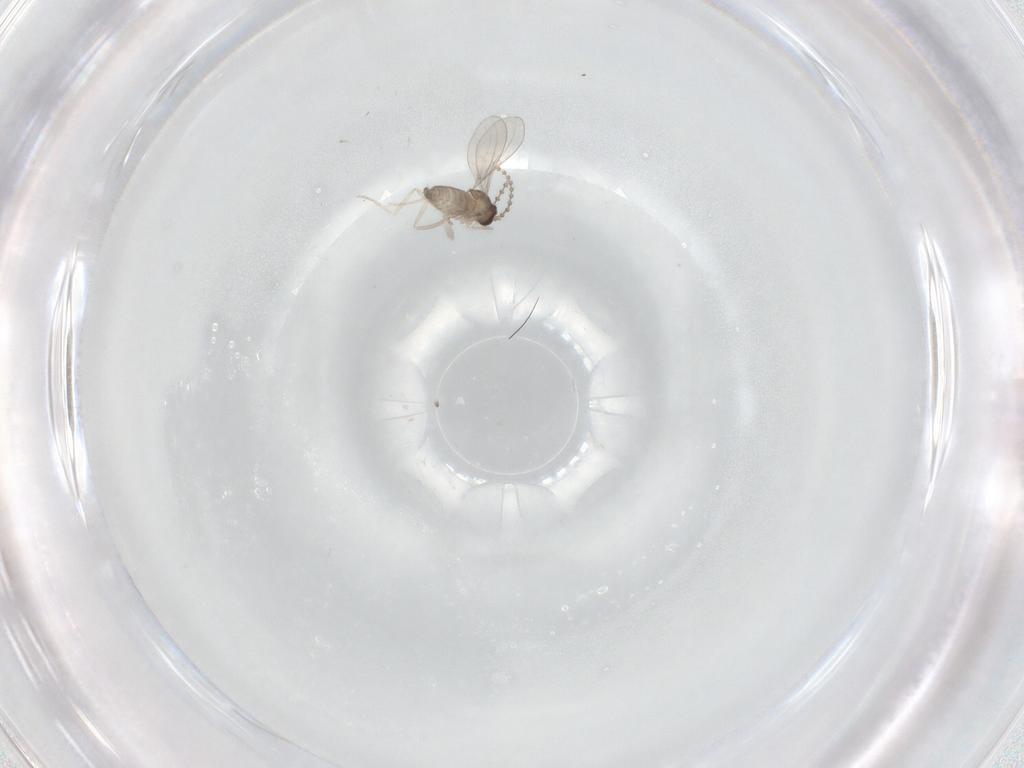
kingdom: Animalia
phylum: Arthropoda
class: Insecta
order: Diptera
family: Cecidomyiidae
